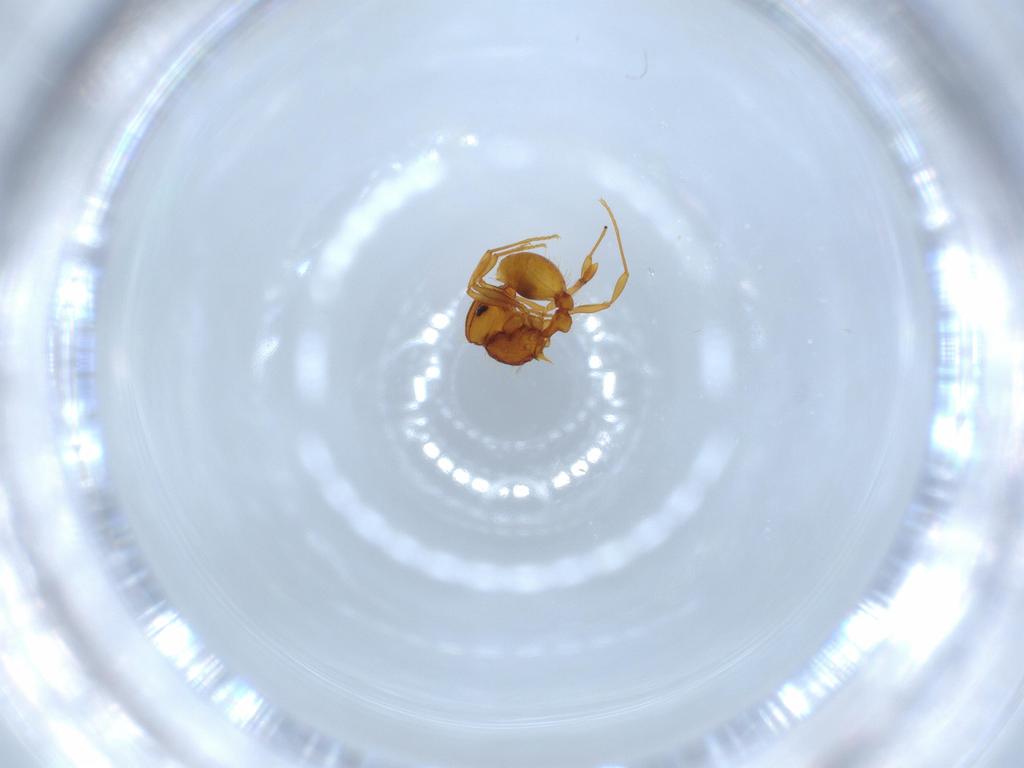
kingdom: Animalia
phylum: Arthropoda
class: Insecta
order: Hymenoptera
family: Formicidae
